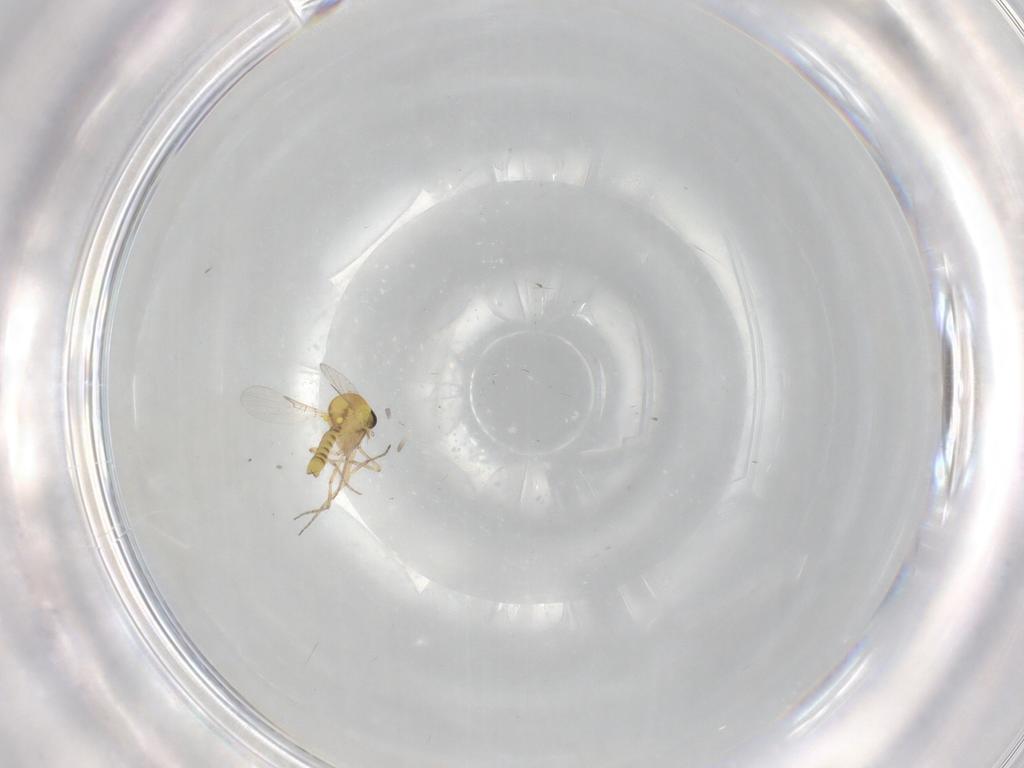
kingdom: Animalia
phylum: Arthropoda
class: Insecta
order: Diptera
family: Ceratopogonidae
